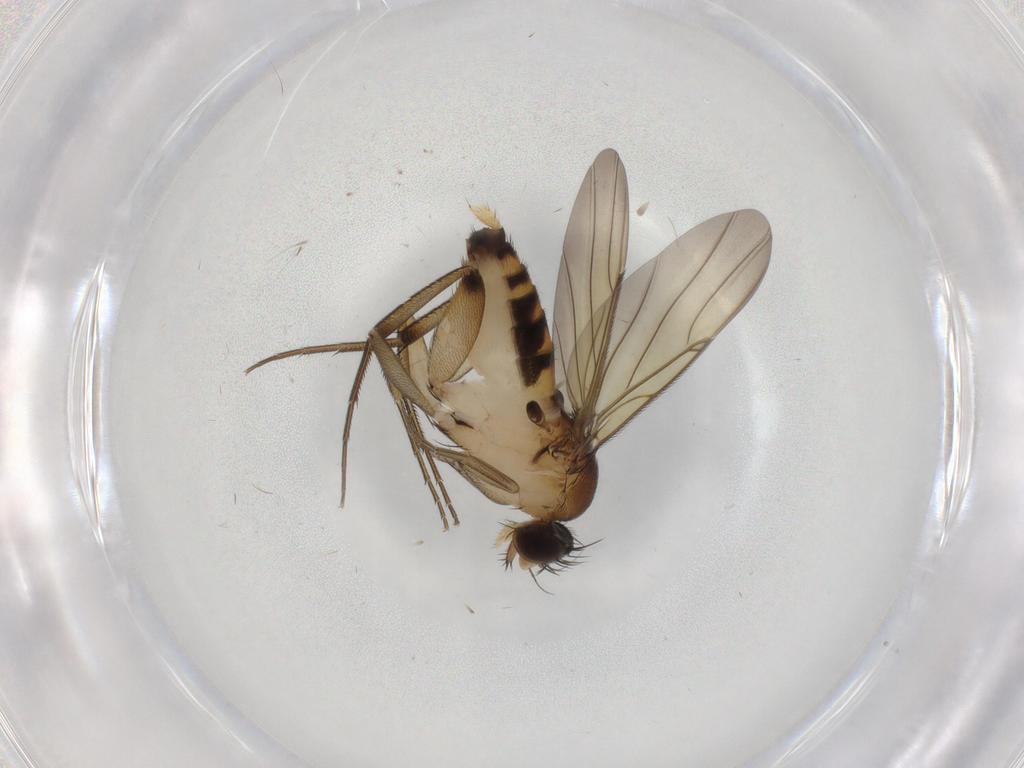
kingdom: Animalia
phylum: Arthropoda
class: Insecta
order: Diptera
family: Phoridae
